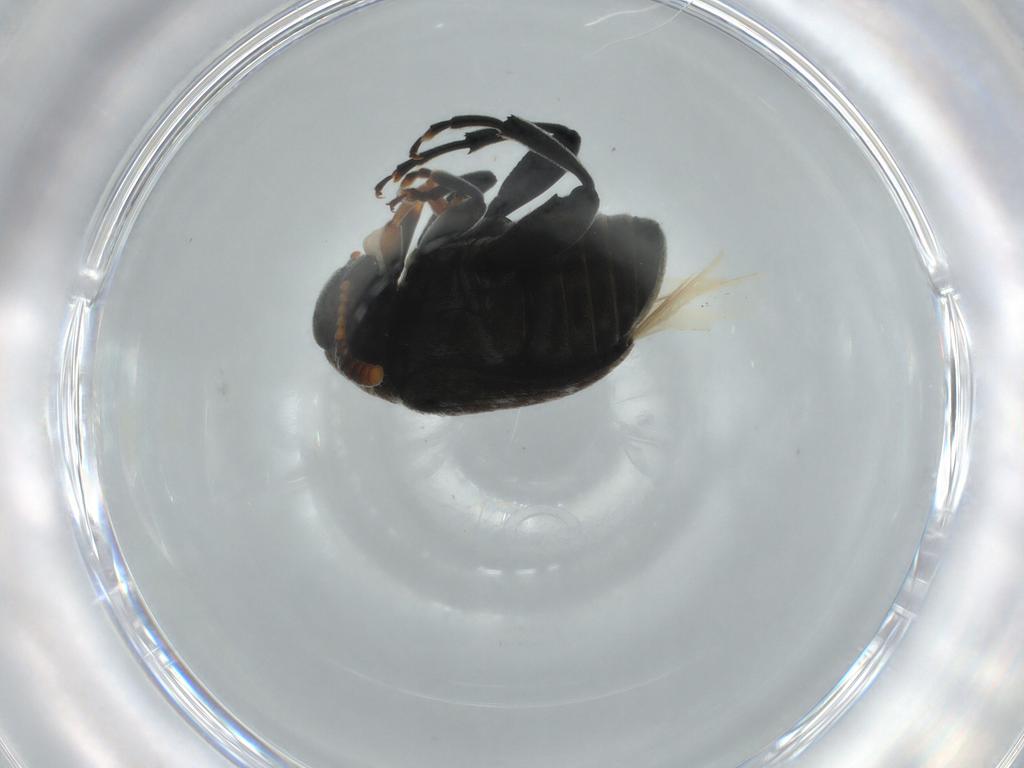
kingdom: Animalia
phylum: Arthropoda
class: Insecta
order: Coleoptera
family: Chrysomelidae
